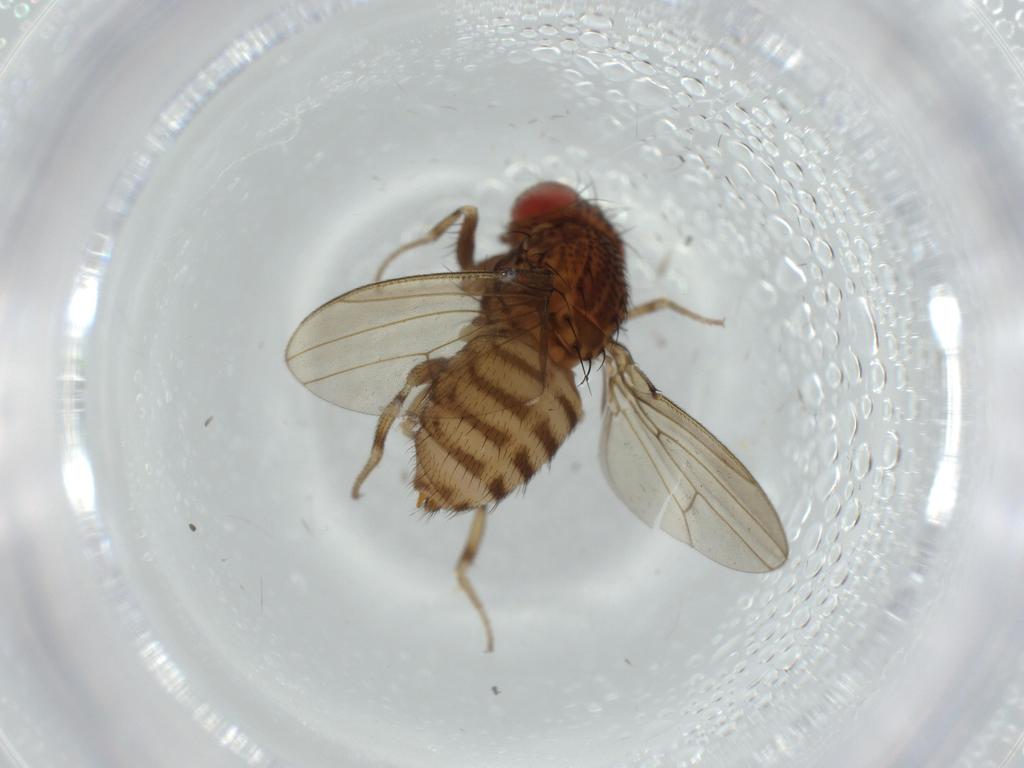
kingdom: Animalia
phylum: Arthropoda
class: Insecta
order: Diptera
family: Drosophilidae
